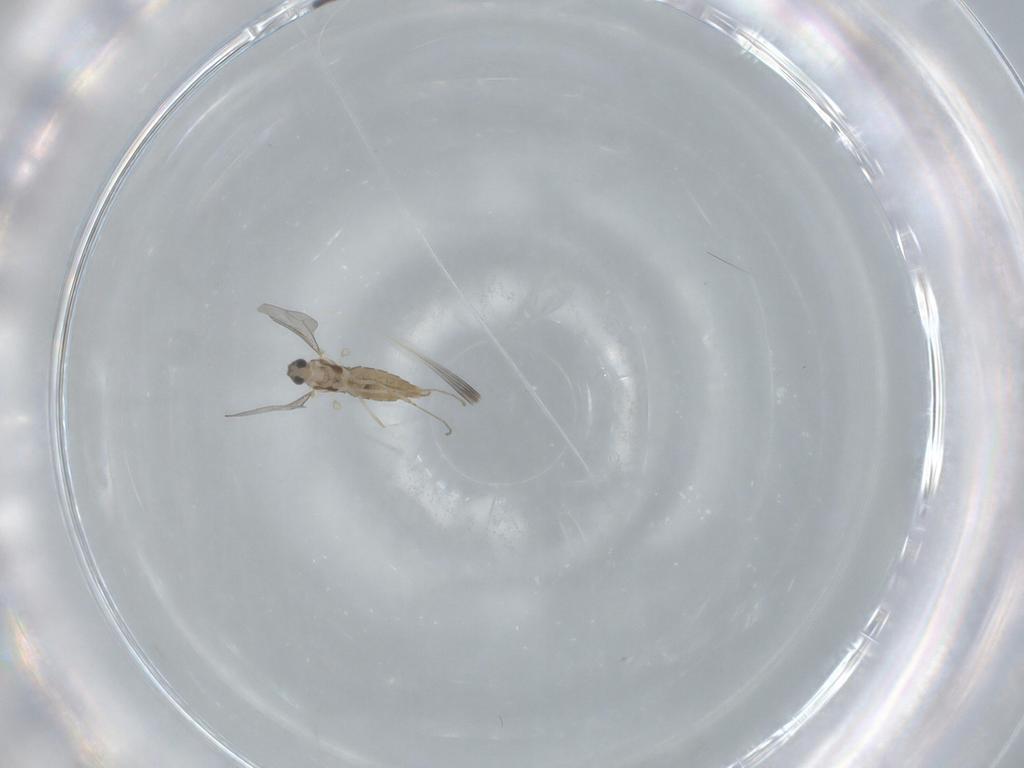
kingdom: Animalia
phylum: Arthropoda
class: Insecta
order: Diptera
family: Cecidomyiidae
